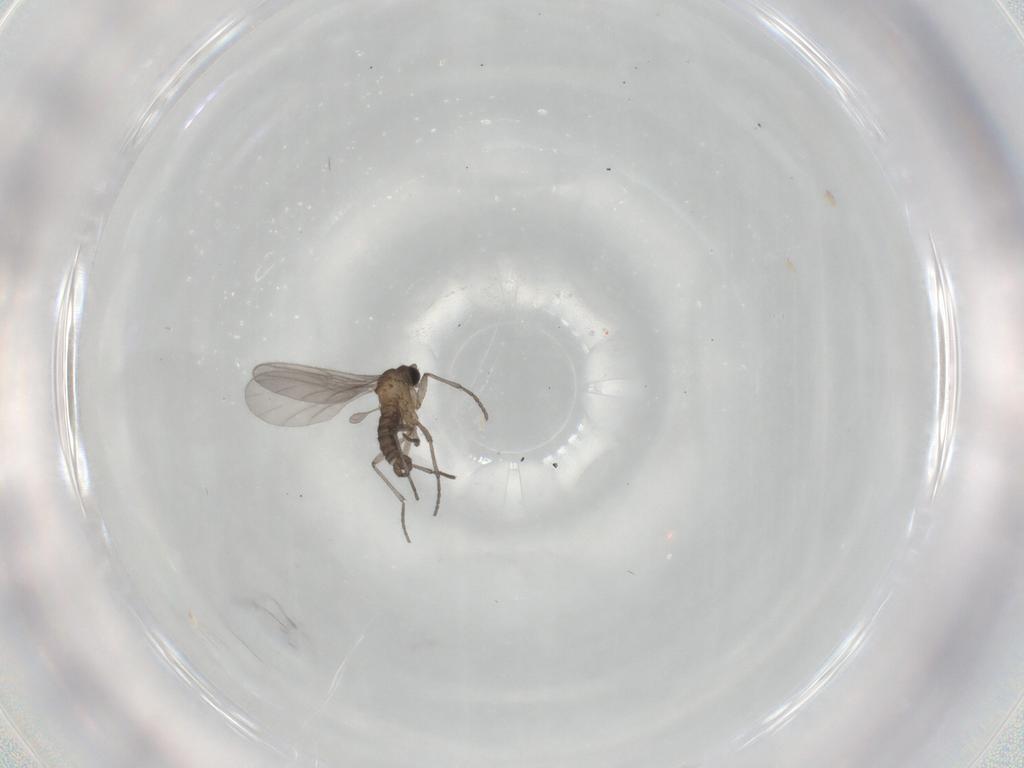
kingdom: Animalia
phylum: Arthropoda
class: Insecta
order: Diptera
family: Sciaridae
